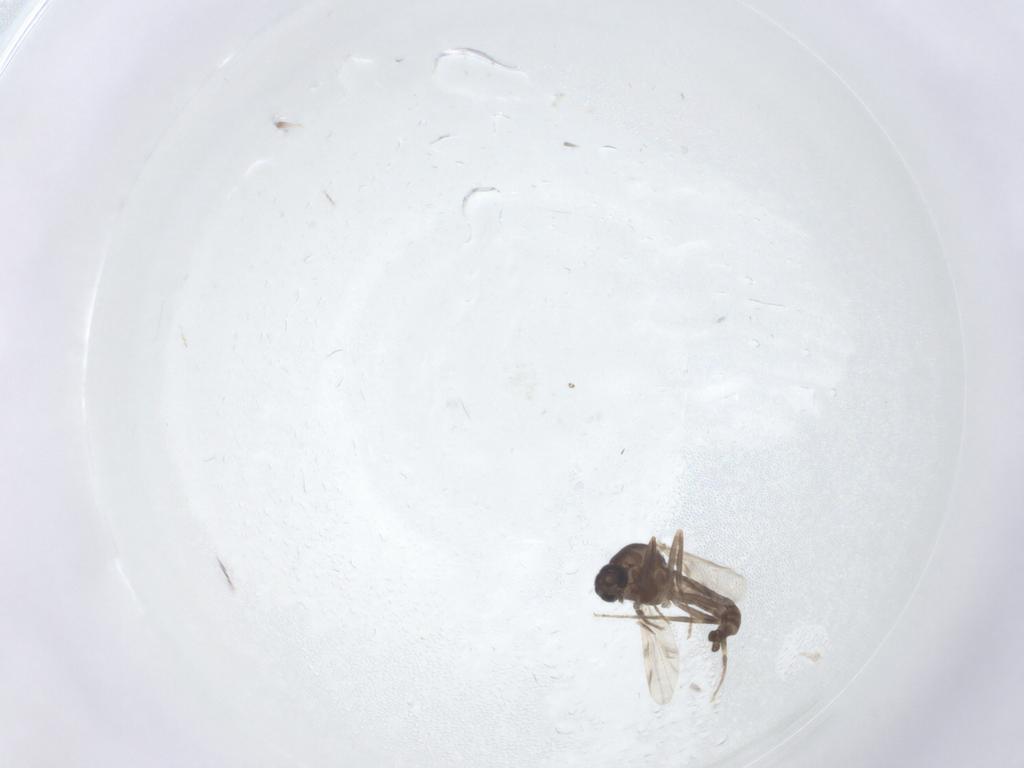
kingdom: Animalia
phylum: Arthropoda
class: Insecta
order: Diptera
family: Ceratopogonidae
